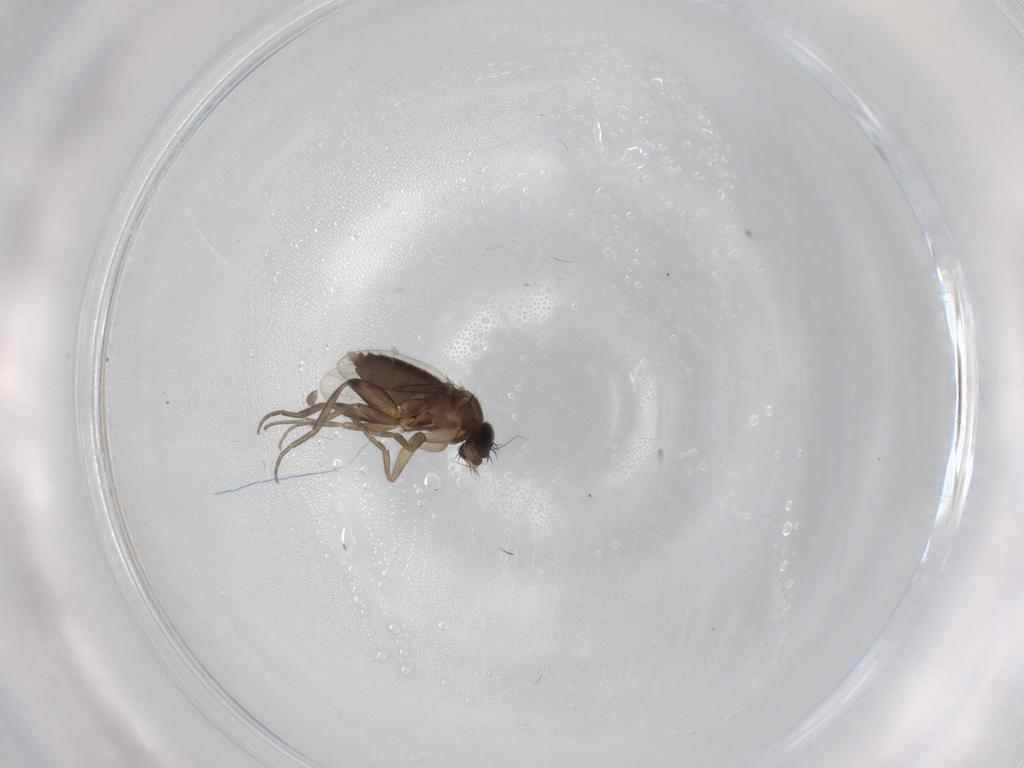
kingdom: Animalia
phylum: Arthropoda
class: Insecta
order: Diptera
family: Phoridae
